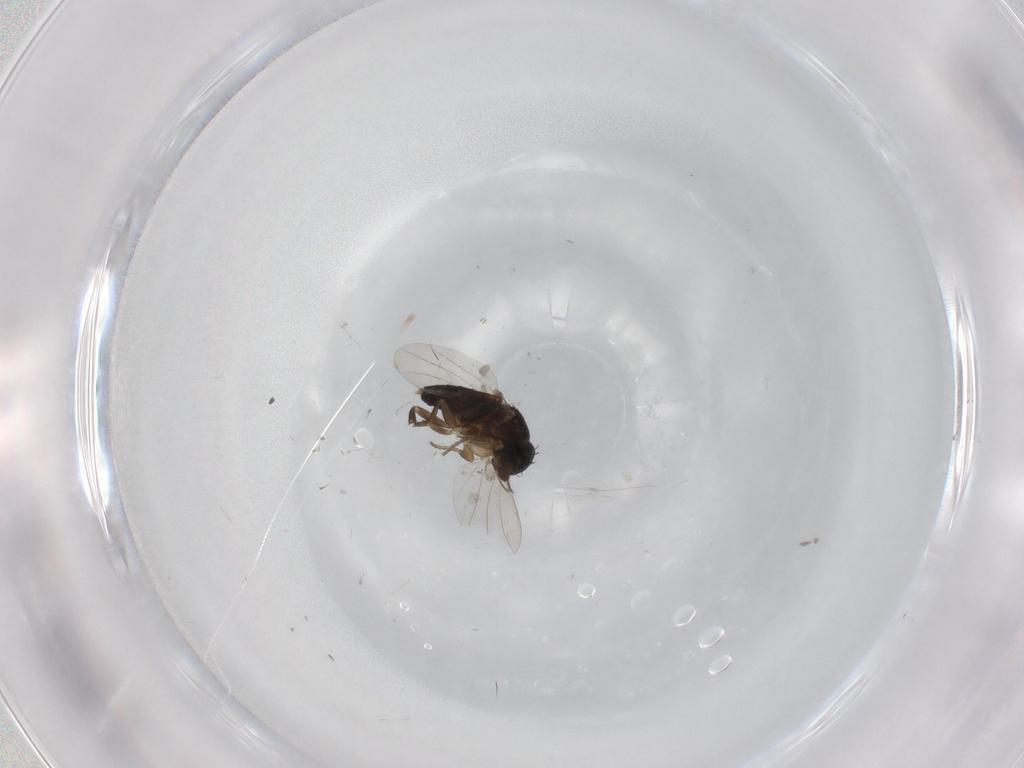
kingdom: Animalia
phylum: Arthropoda
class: Insecta
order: Diptera
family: Phoridae
